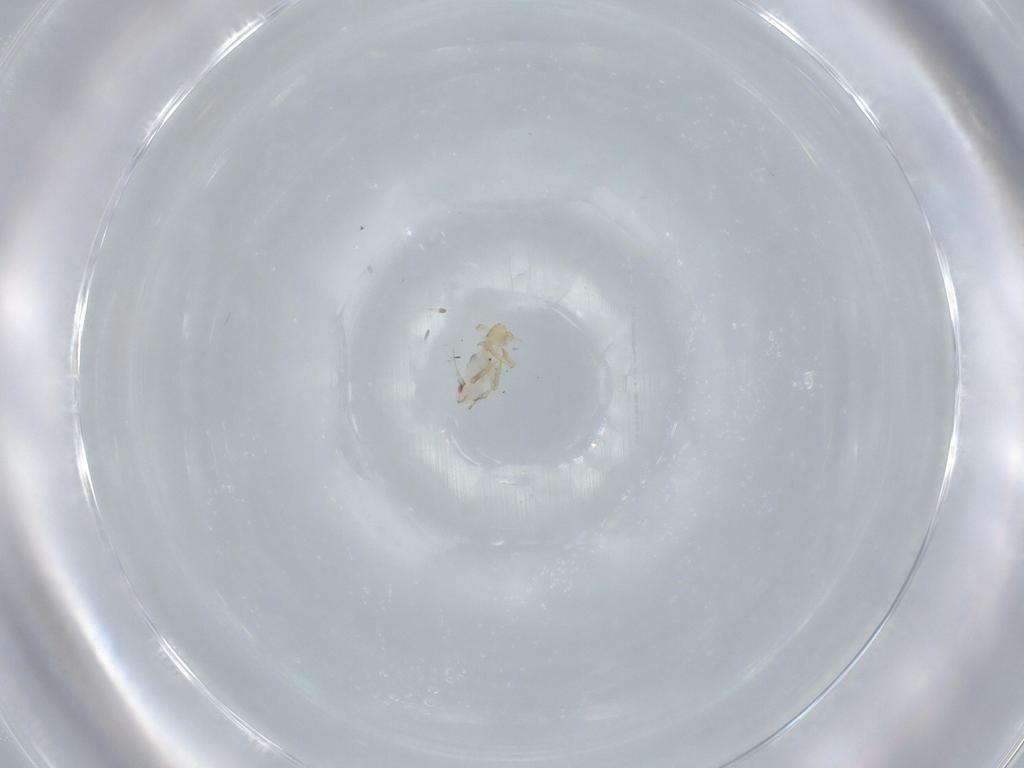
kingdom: Animalia
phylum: Arthropoda
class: Insecta
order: Hemiptera
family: Delphacidae
